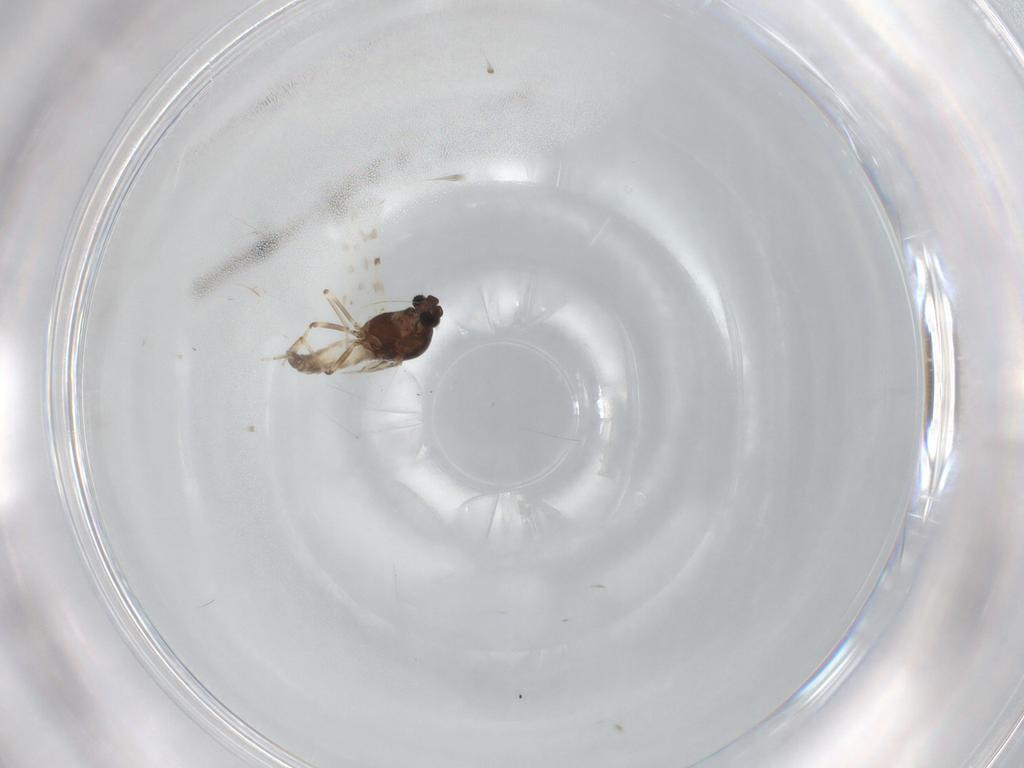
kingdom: Animalia
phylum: Arthropoda
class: Insecta
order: Diptera
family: Ceratopogonidae
